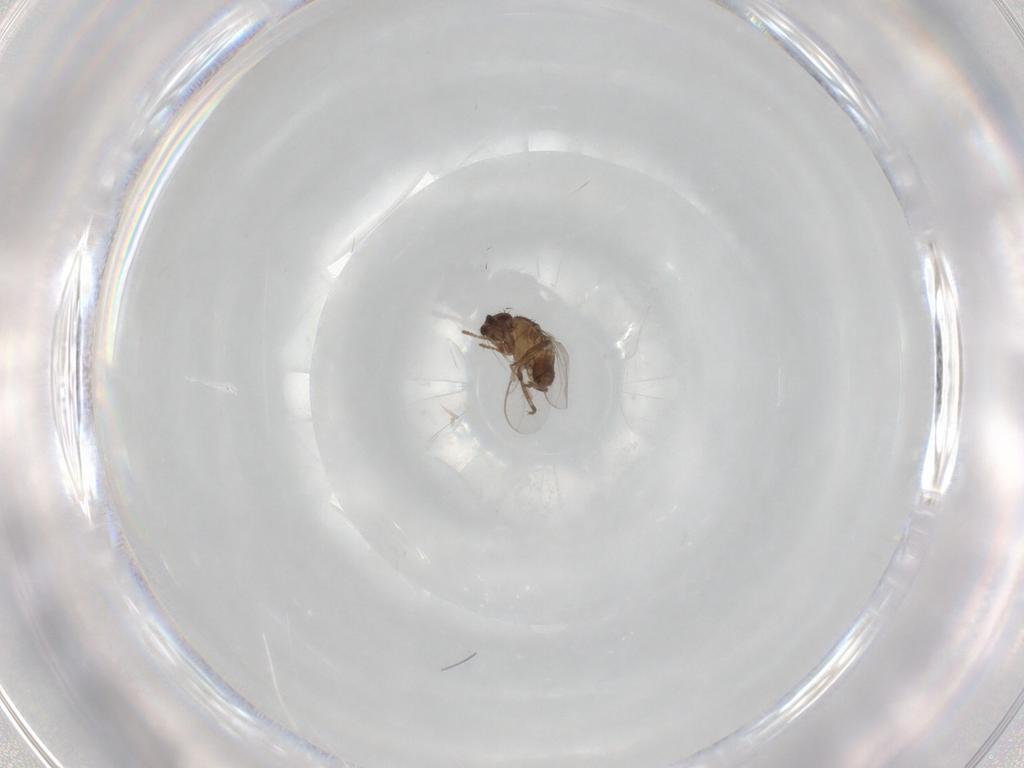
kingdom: Animalia
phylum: Arthropoda
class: Insecta
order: Diptera
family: Sphaeroceridae
